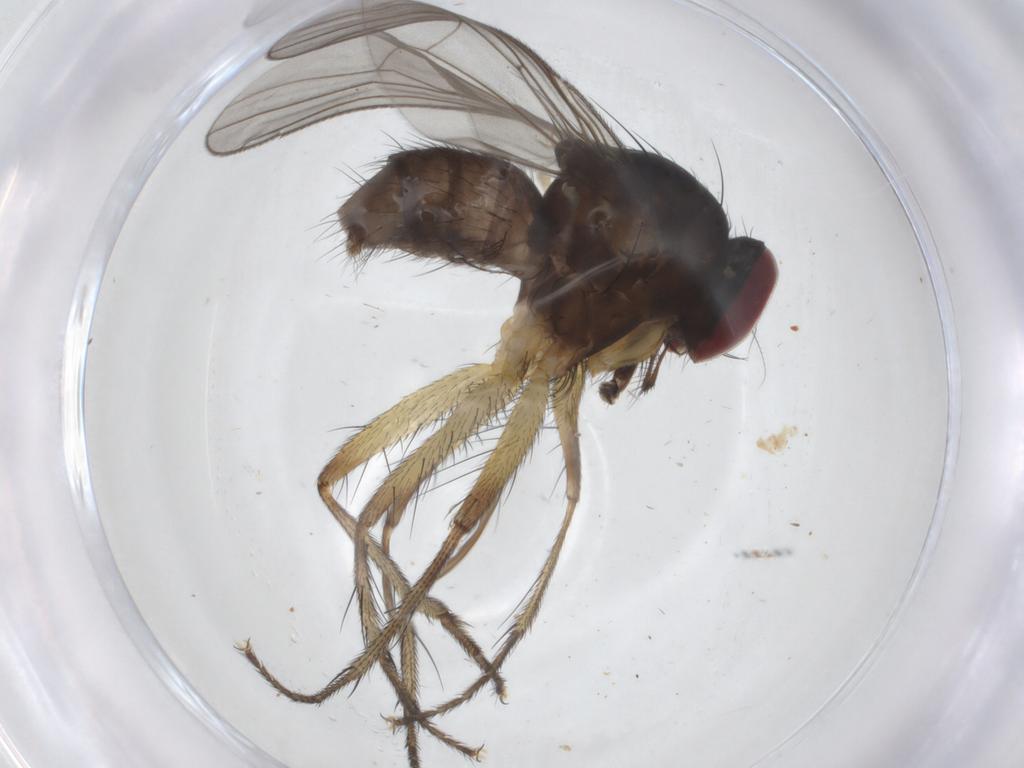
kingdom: Animalia
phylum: Arthropoda
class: Insecta
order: Diptera
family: Anthomyiidae
